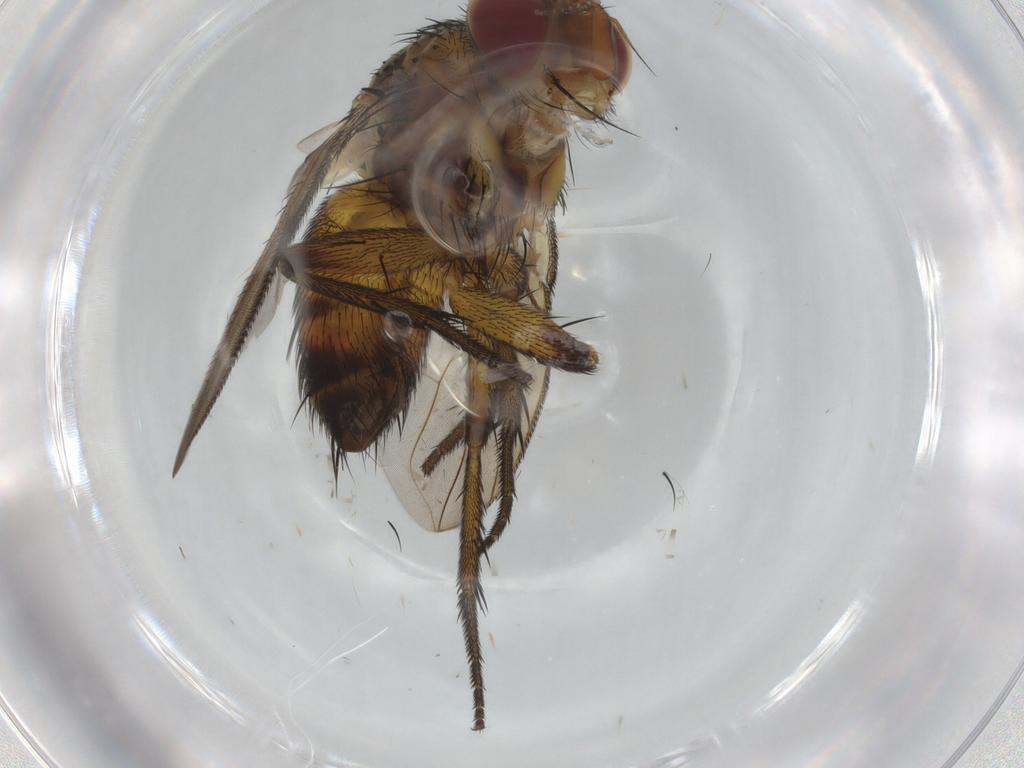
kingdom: Animalia
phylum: Arthropoda
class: Insecta
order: Diptera
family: Tachinidae
